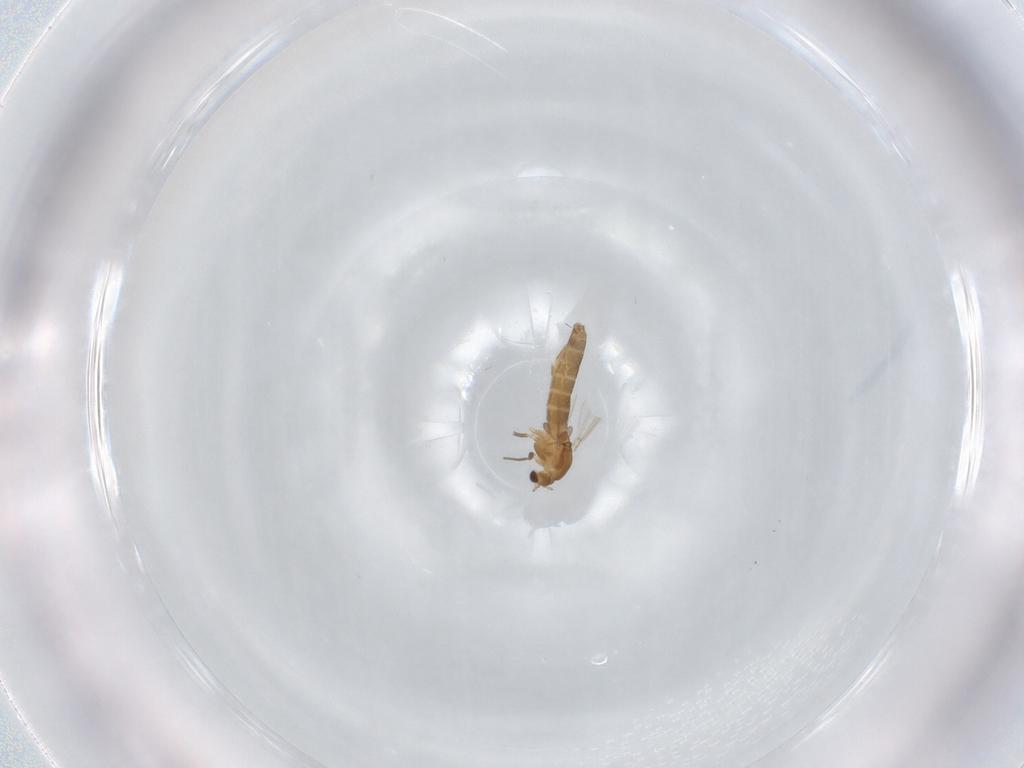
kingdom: Animalia
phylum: Arthropoda
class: Insecta
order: Diptera
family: Chironomidae
